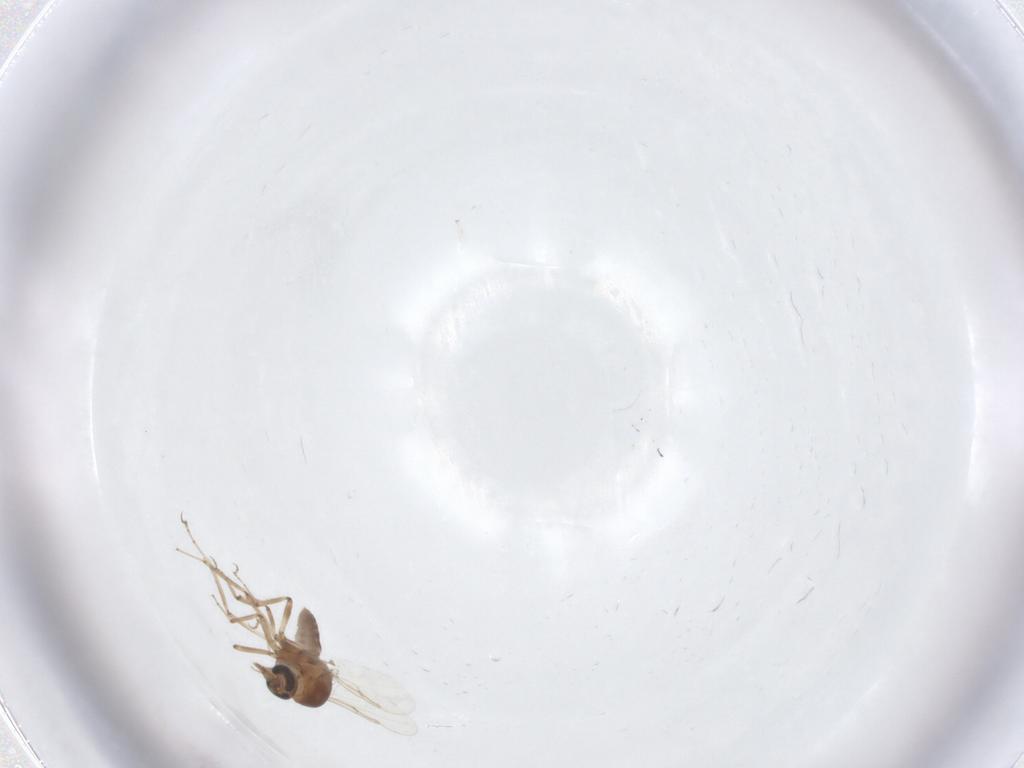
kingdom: Animalia
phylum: Arthropoda
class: Insecta
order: Diptera
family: Ceratopogonidae
